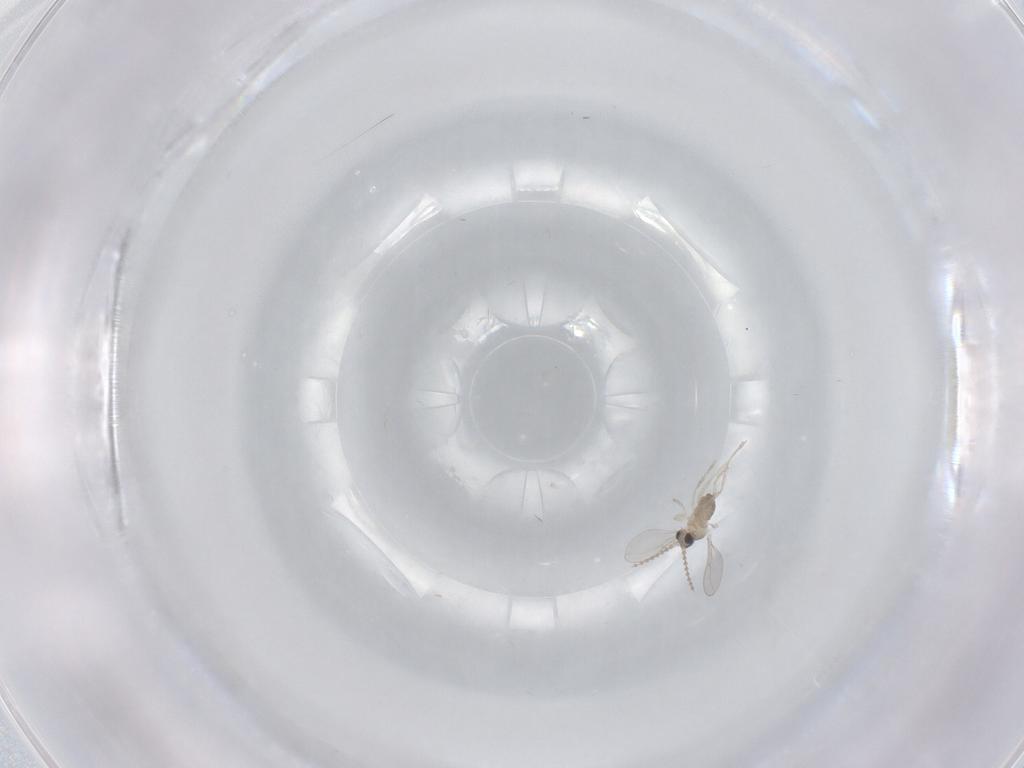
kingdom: Animalia
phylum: Arthropoda
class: Insecta
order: Diptera
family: Cecidomyiidae
